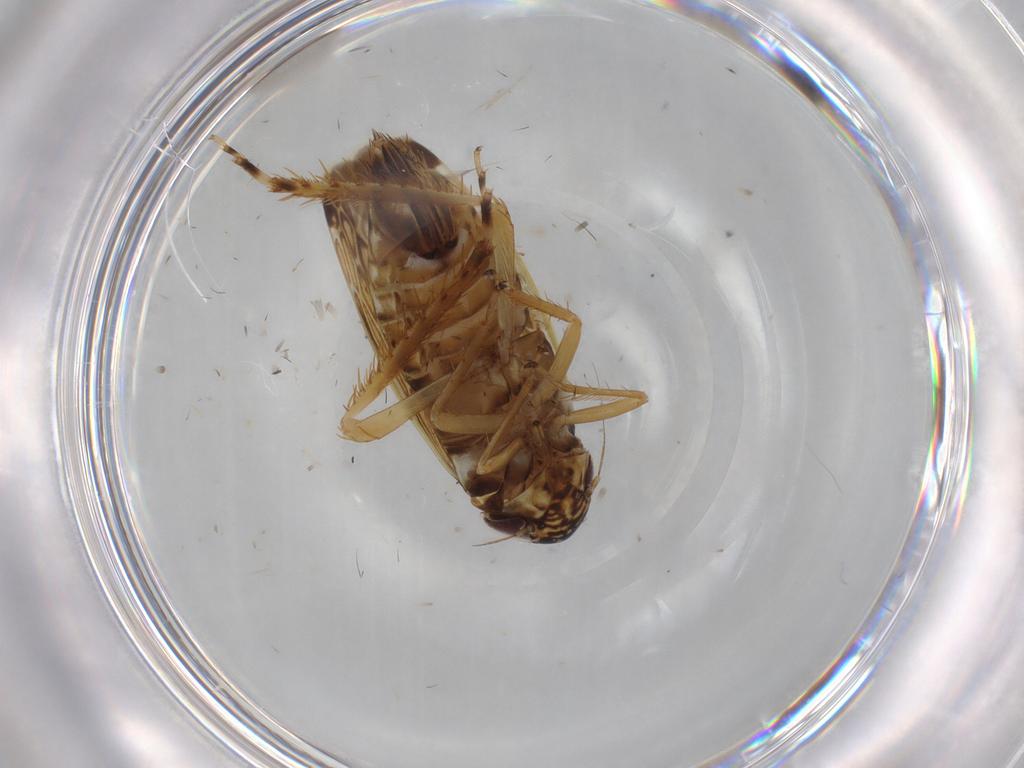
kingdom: Animalia
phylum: Arthropoda
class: Insecta
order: Hemiptera
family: Cicadellidae
